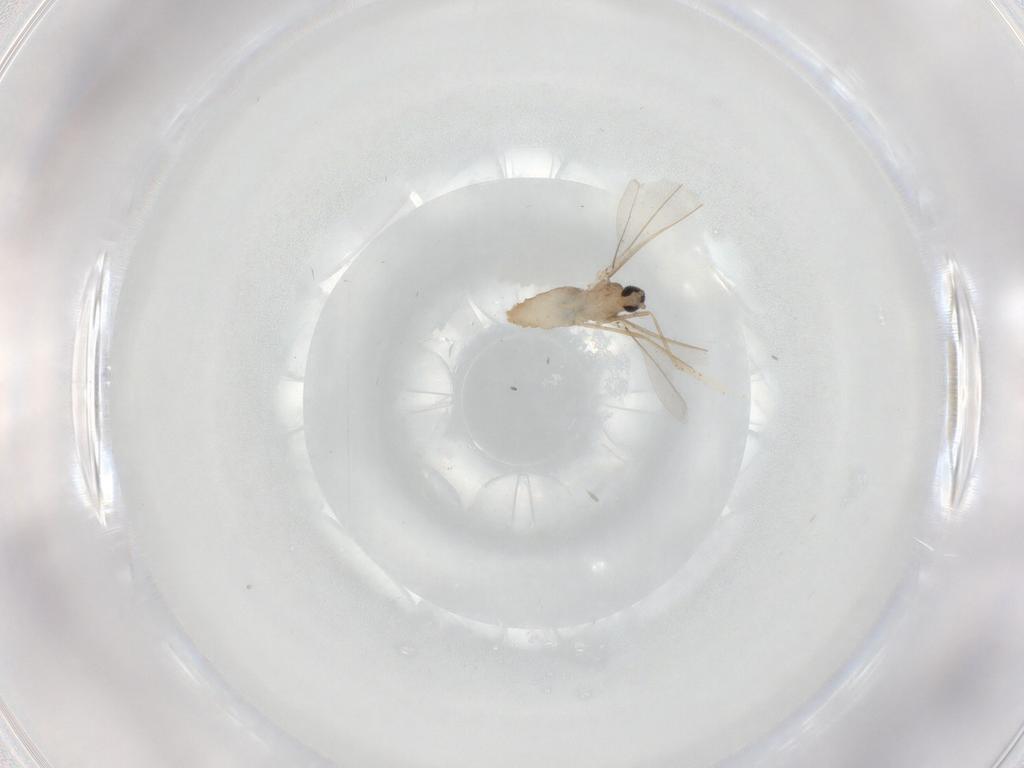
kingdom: Animalia
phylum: Arthropoda
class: Insecta
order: Diptera
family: Cecidomyiidae
